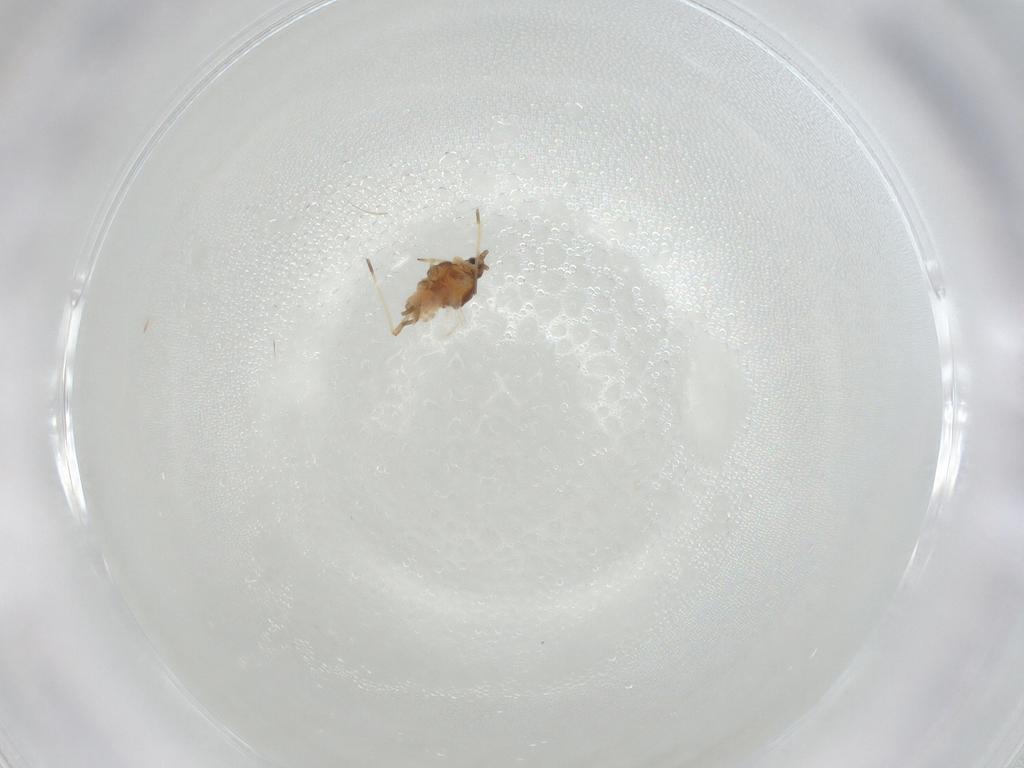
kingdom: Animalia
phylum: Arthropoda
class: Insecta
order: Hemiptera
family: Aphididae
